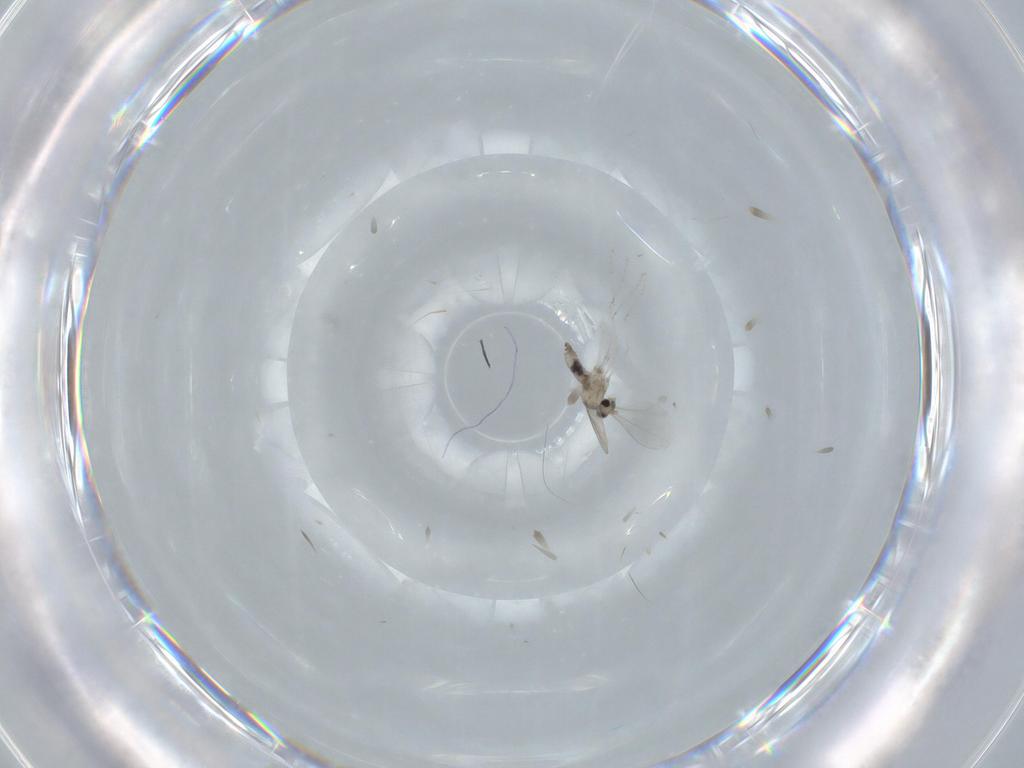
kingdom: Animalia
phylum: Arthropoda
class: Insecta
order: Diptera
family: Cecidomyiidae
